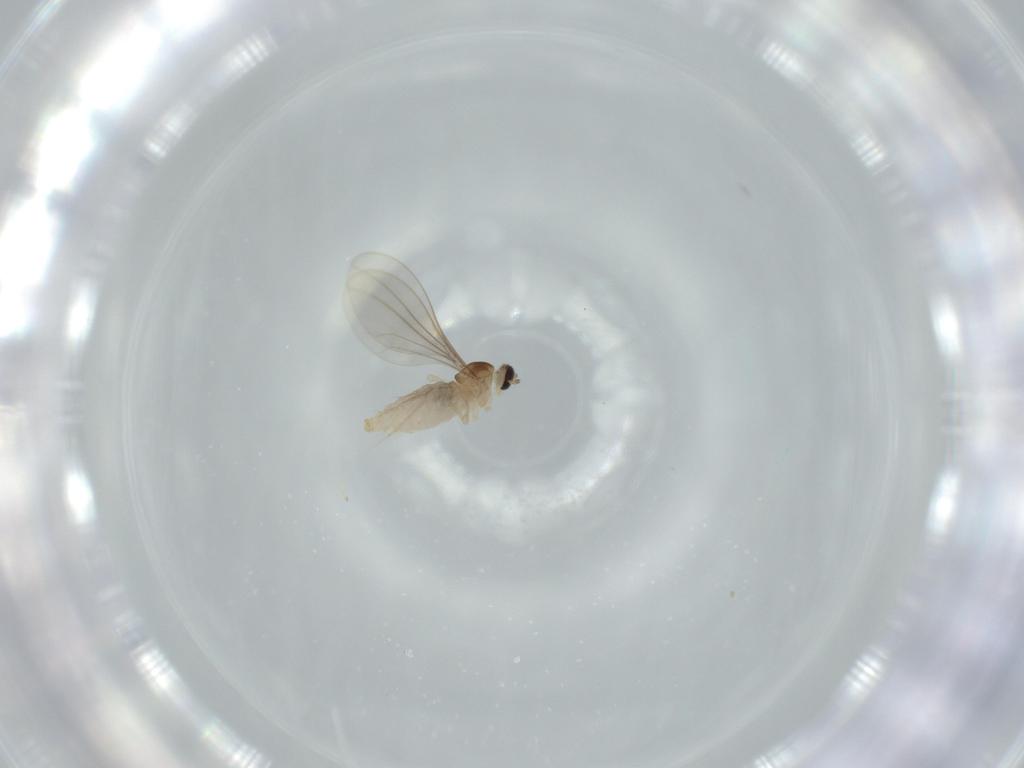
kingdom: Animalia
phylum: Arthropoda
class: Insecta
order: Diptera
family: Cecidomyiidae
